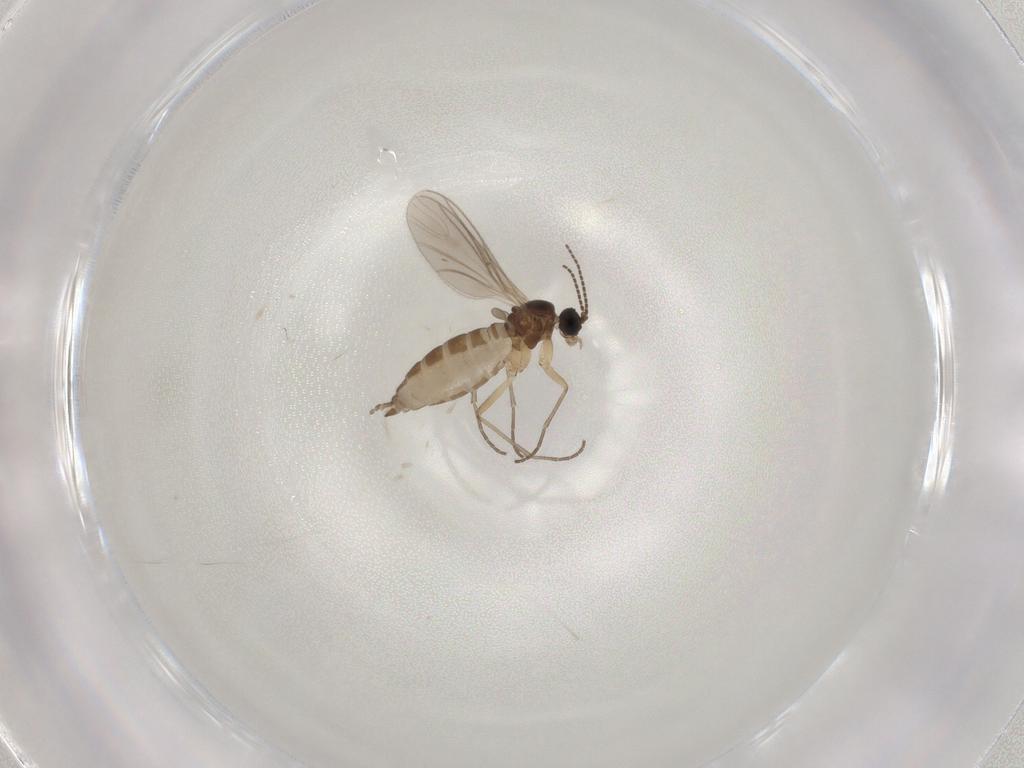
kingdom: Animalia
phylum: Arthropoda
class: Insecta
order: Diptera
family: Sciaridae
